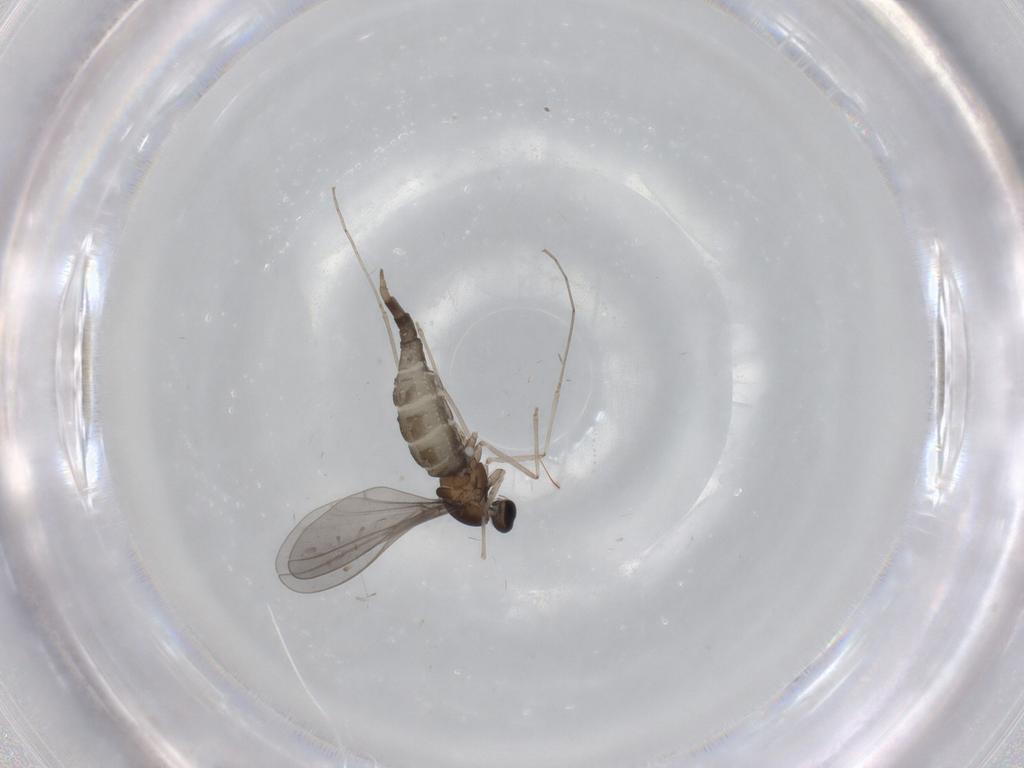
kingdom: Animalia
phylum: Arthropoda
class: Insecta
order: Diptera
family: Cecidomyiidae
